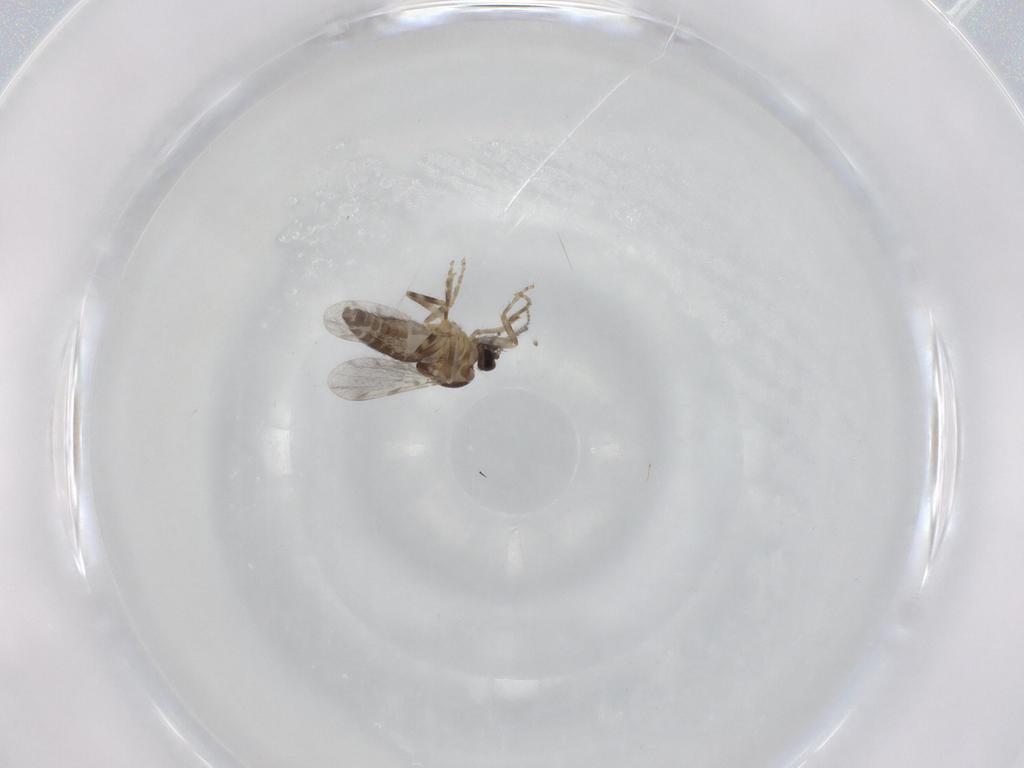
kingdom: Animalia
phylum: Arthropoda
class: Insecta
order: Diptera
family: Ceratopogonidae
